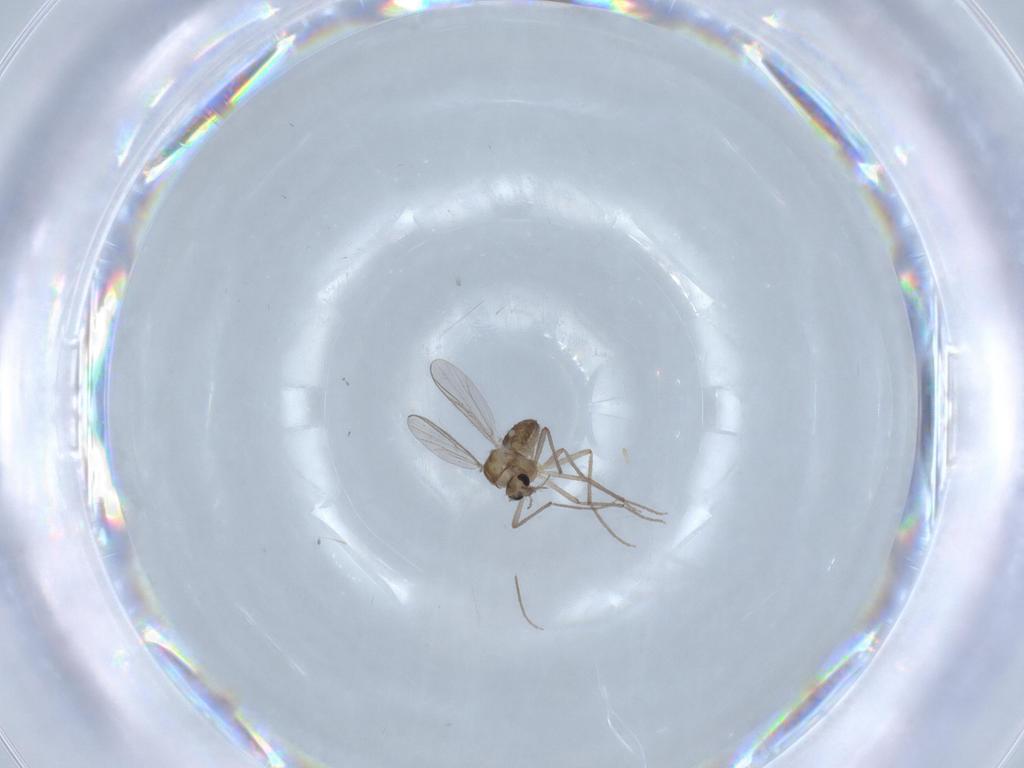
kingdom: Animalia
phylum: Arthropoda
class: Insecta
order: Diptera
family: Chironomidae
